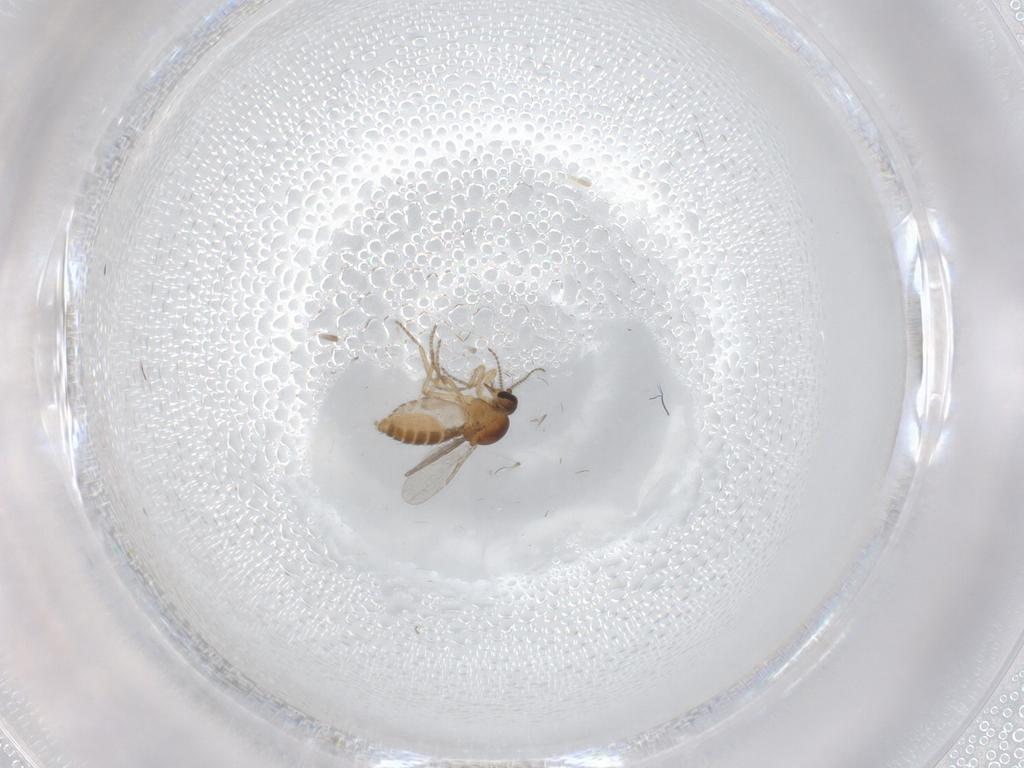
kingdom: Animalia
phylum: Arthropoda
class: Insecta
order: Diptera
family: Ceratopogonidae
